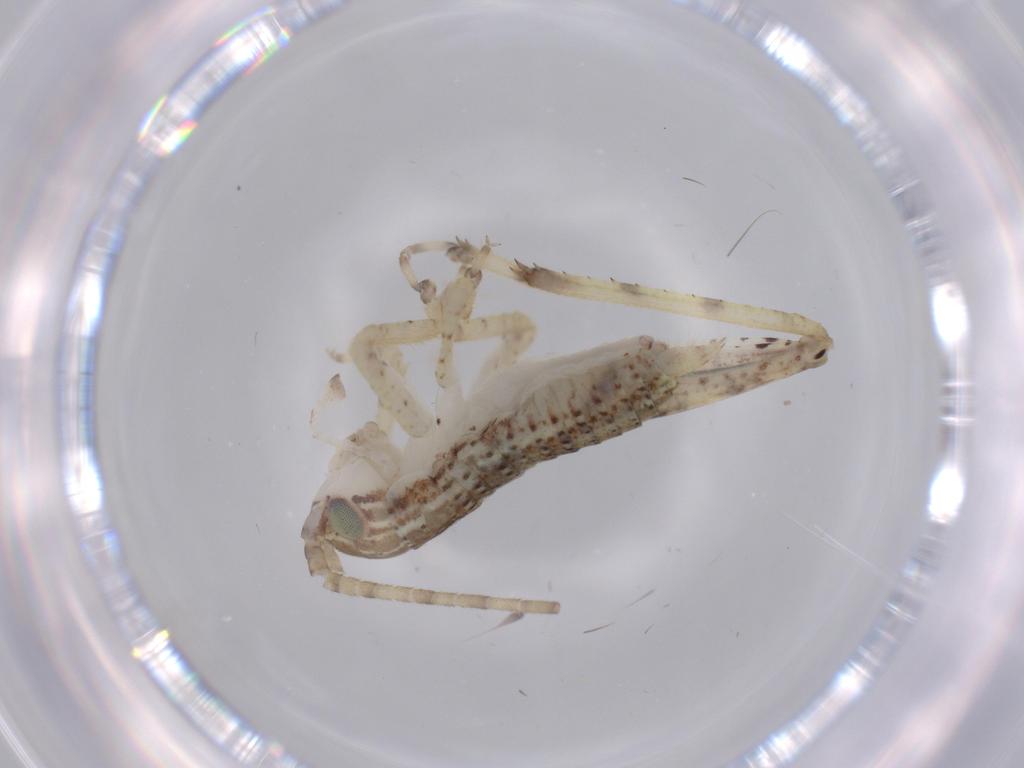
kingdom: Animalia
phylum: Arthropoda
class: Insecta
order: Orthoptera
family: Gryllidae
